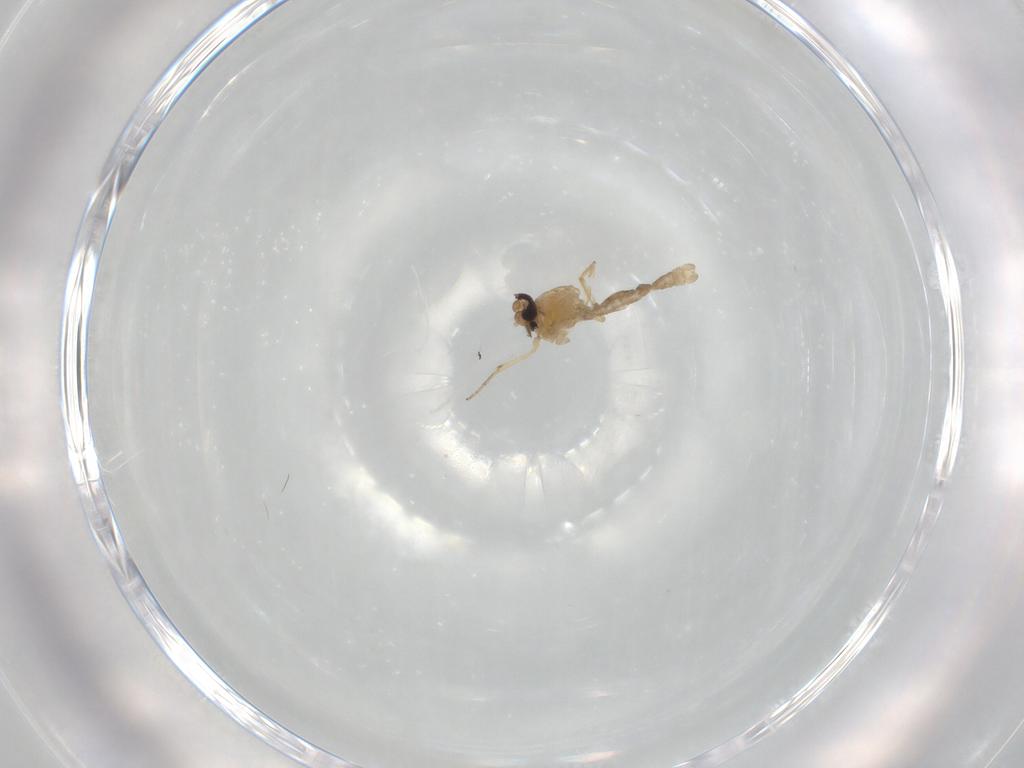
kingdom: Animalia
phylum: Arthropoda
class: Insecta
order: Diptera
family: Ceratopogonidae
